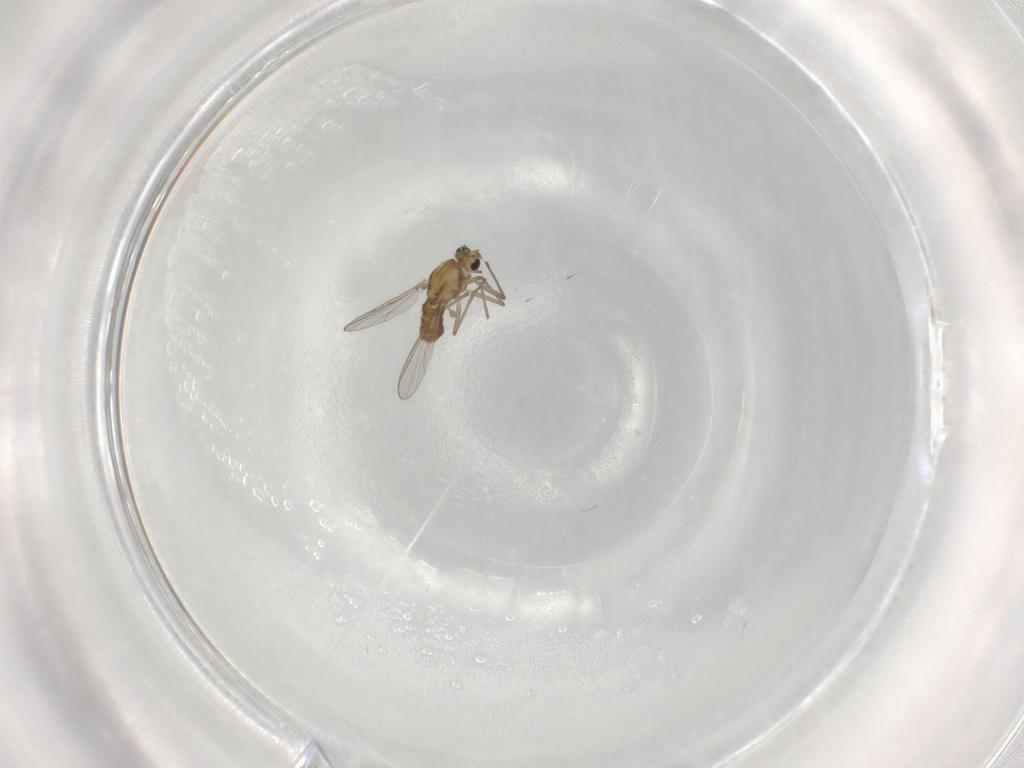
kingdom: Animalia
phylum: Arthropoda
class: Insecta
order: Diptera
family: Chironomidae
